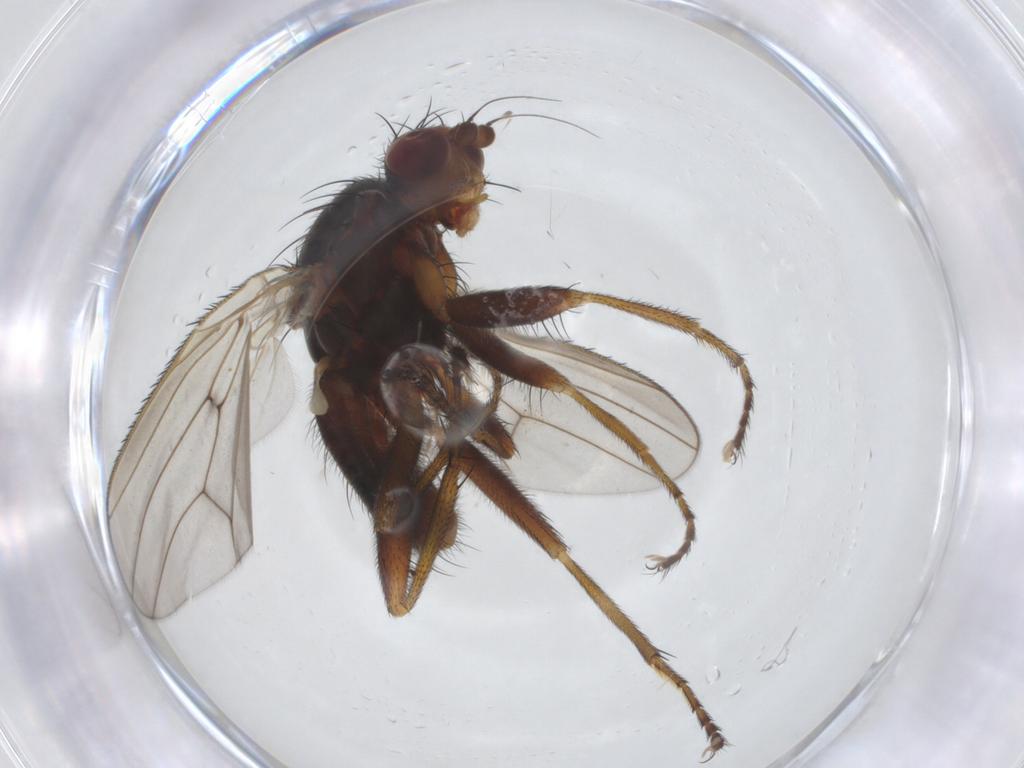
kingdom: Animalia
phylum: Arthropoda
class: Insecta
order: Diptera
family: Heleomyzidae
